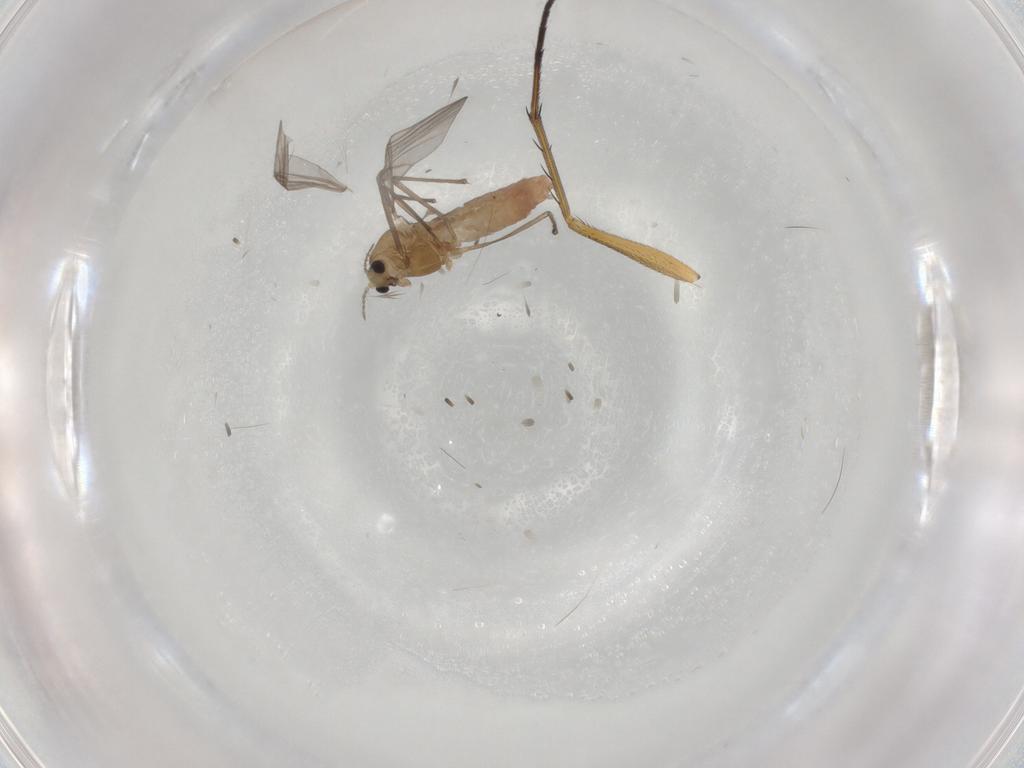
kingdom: Animalia
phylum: Arthropoda
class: Insecta
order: Diptera
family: Chironomidae
